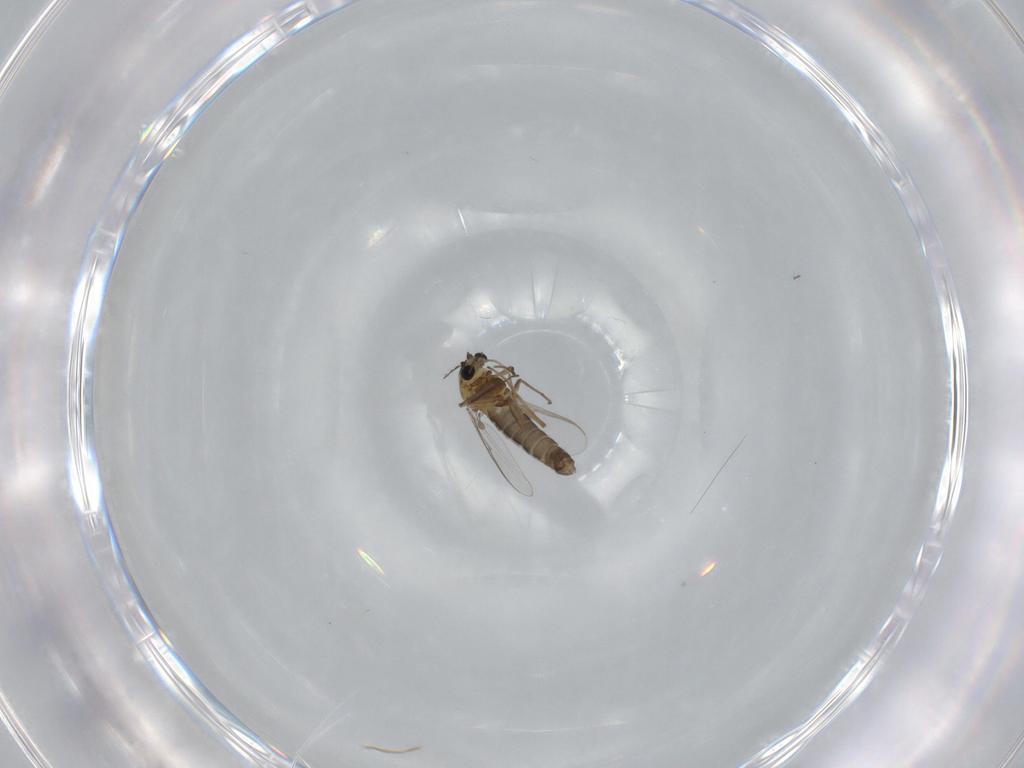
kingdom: Animalia
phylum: Arthropoda
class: Insecta
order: Diptera
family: Chironomidae
